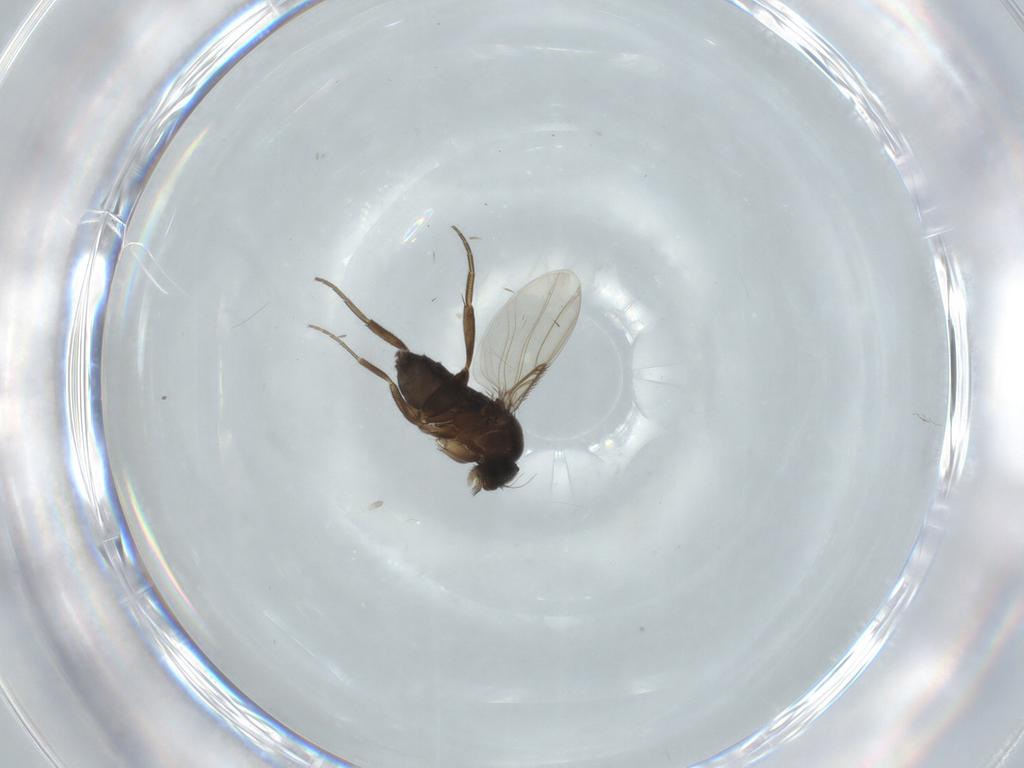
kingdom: Animalia
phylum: Arthropoda
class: Insecta
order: Diptera
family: Phoridae
